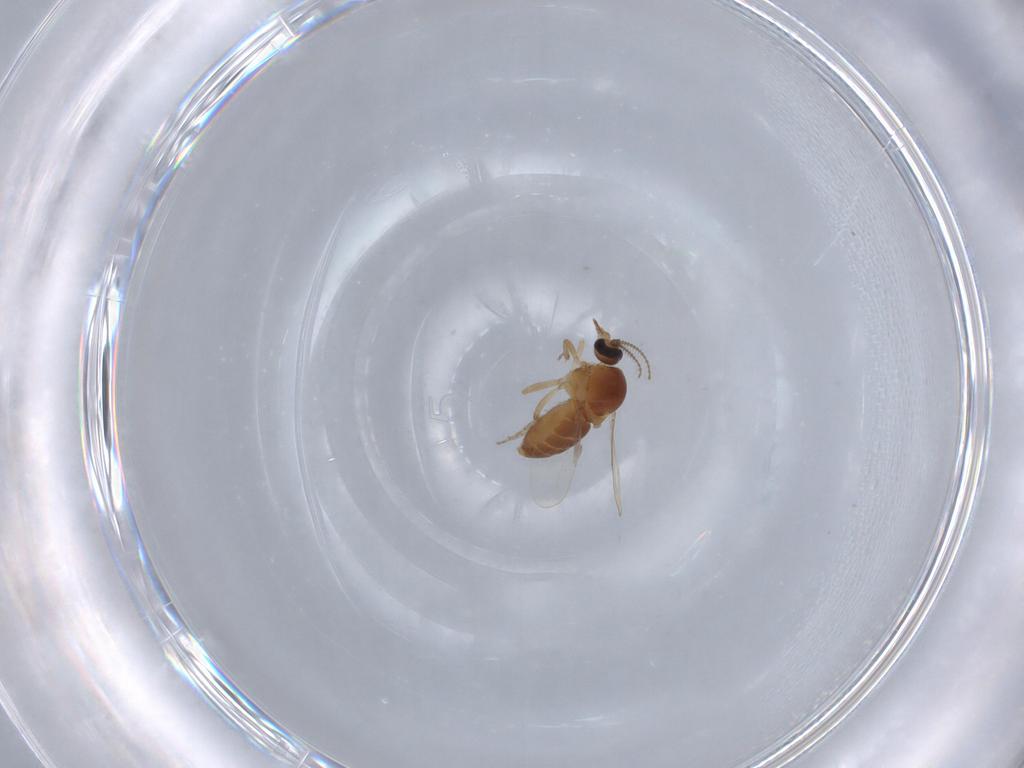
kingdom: Animalia
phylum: Arthropoda
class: Insecta
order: Diptera
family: Ceratopogonidae
